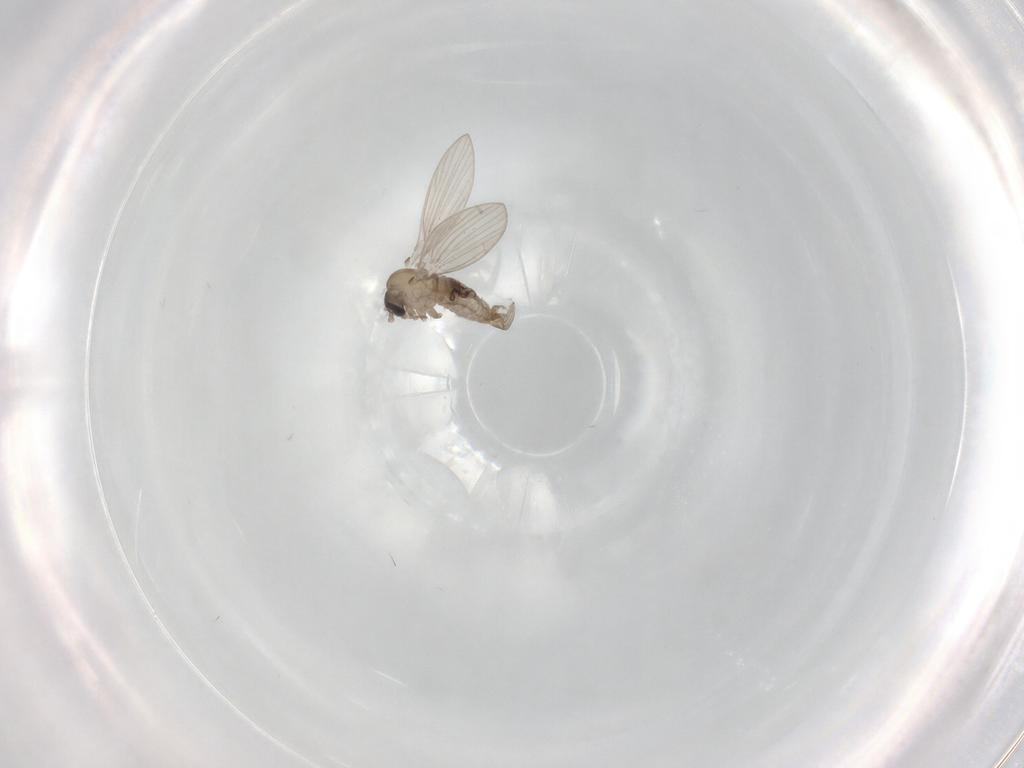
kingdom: Animalia
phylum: Arthropoda
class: Insecta
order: Diptera
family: Psychodidae
